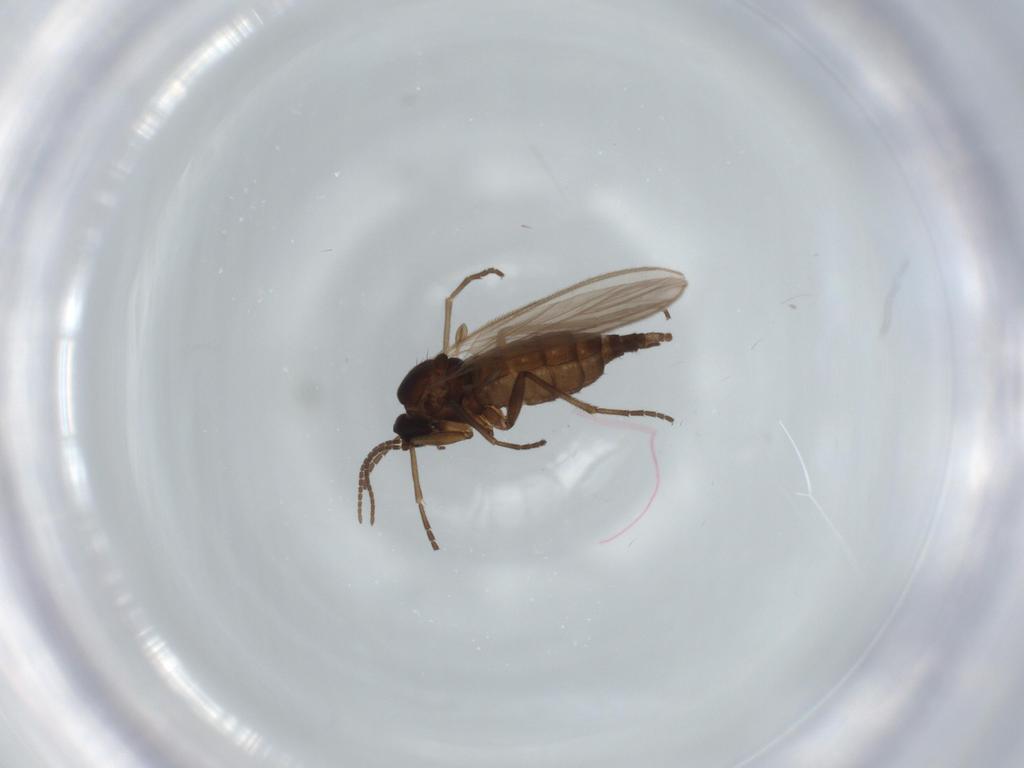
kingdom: Animalia
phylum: Arthropoda
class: Insecta
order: Diptera
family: Sciaridae
